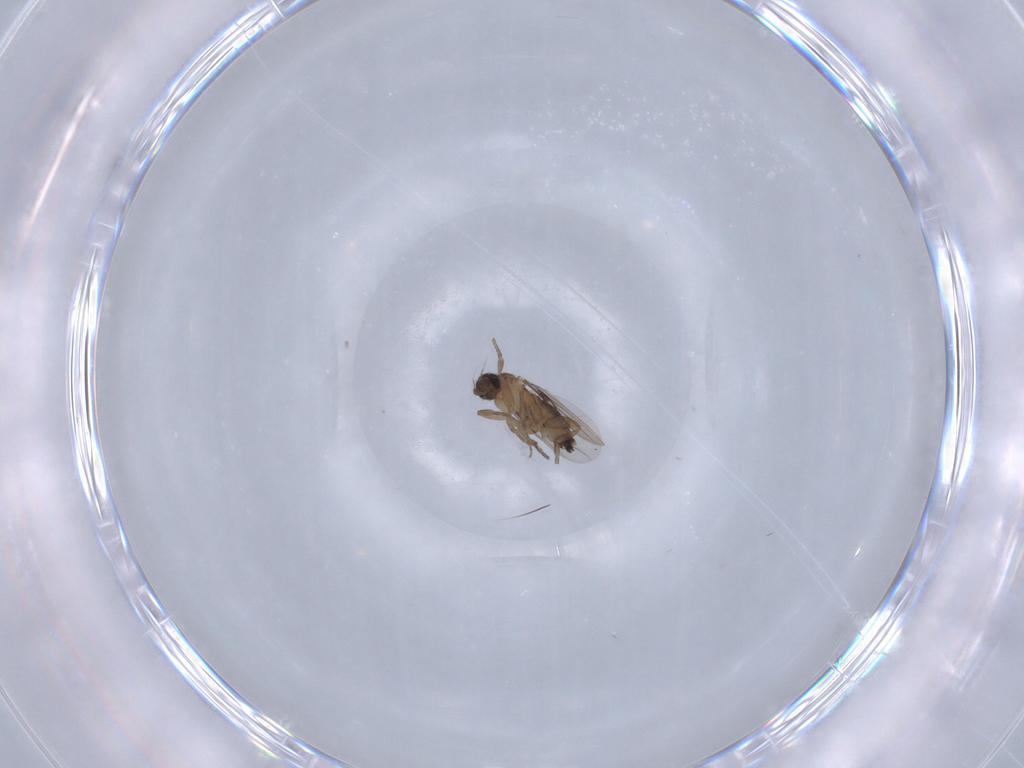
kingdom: Animalia
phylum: Arthropoda
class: Insecta
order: Diptera
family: Phoridae
